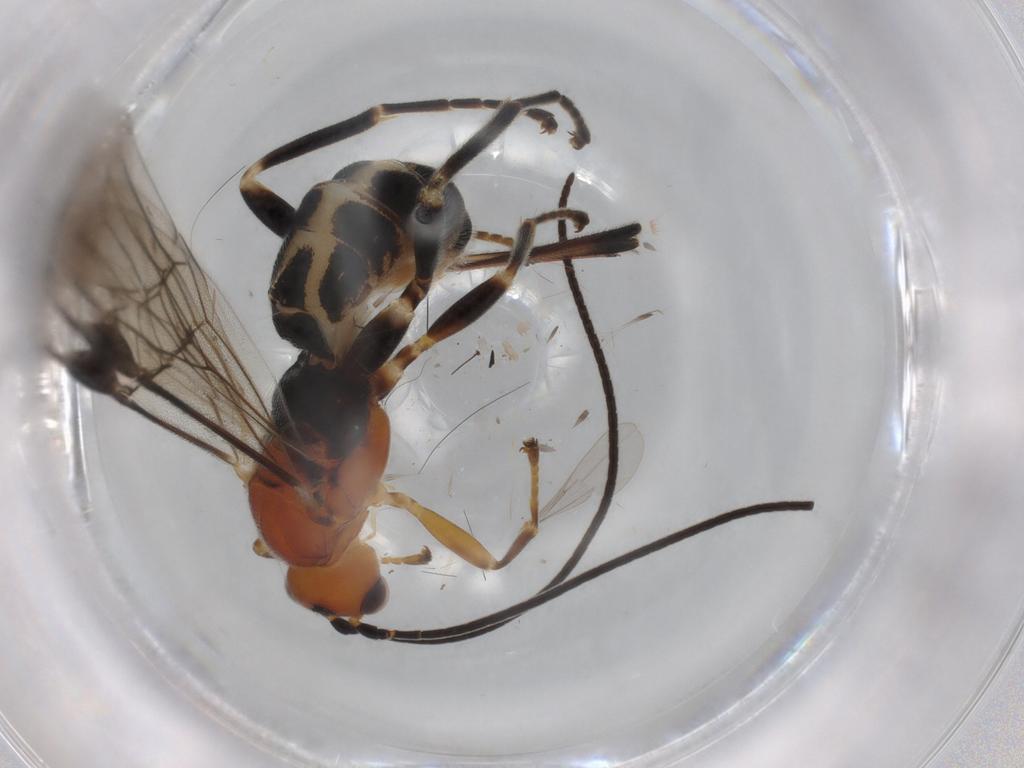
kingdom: Animalia
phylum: Arthropoda
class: Insecta
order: Hymenoptera
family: Braconidae
